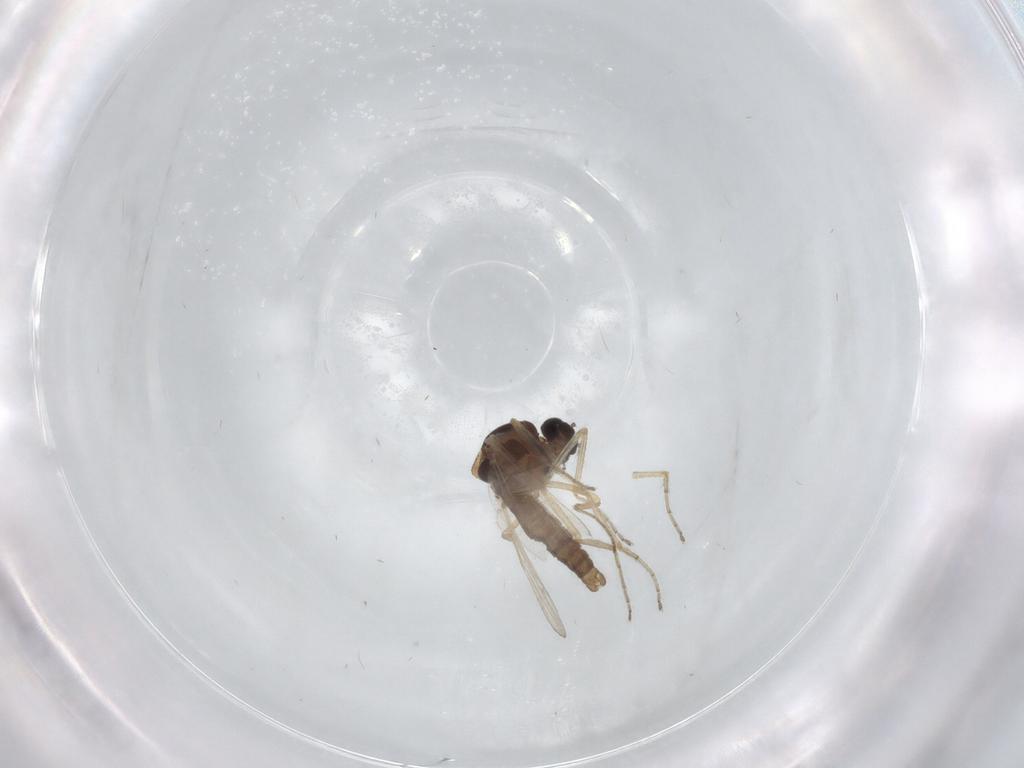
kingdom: Animalia
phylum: Arthropoda
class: Insecta
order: Diptera
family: Ceratopogonidae
